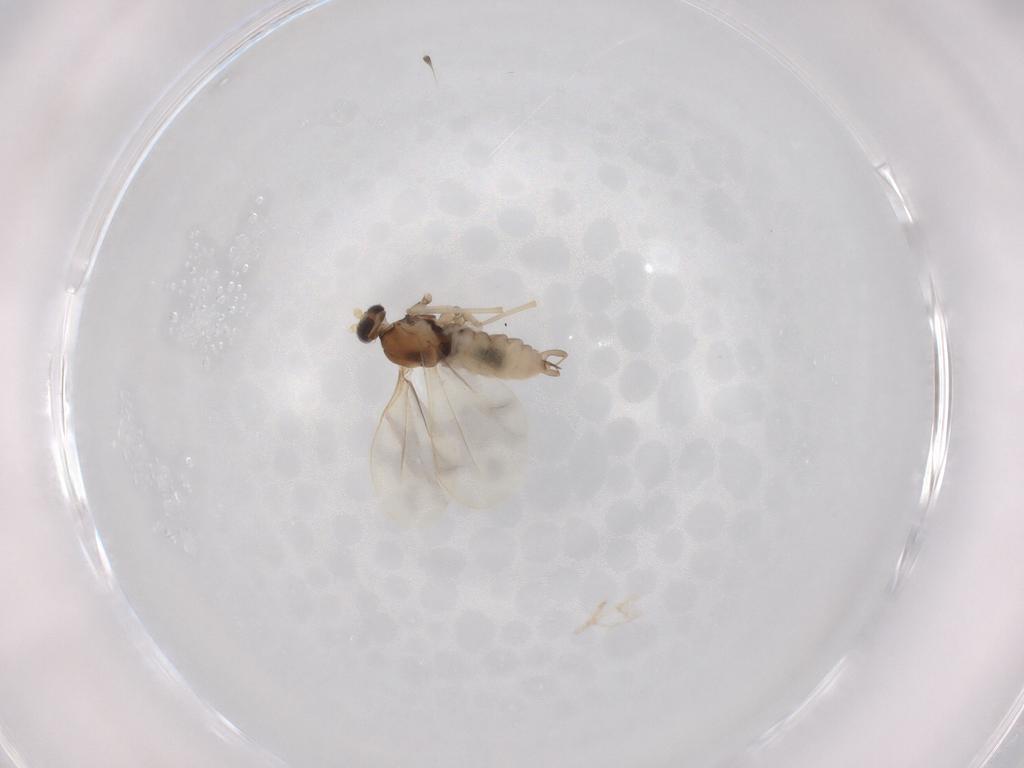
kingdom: Animalia
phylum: Arthropoda
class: Insecta
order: Diptera
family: Cecidomyiidae
